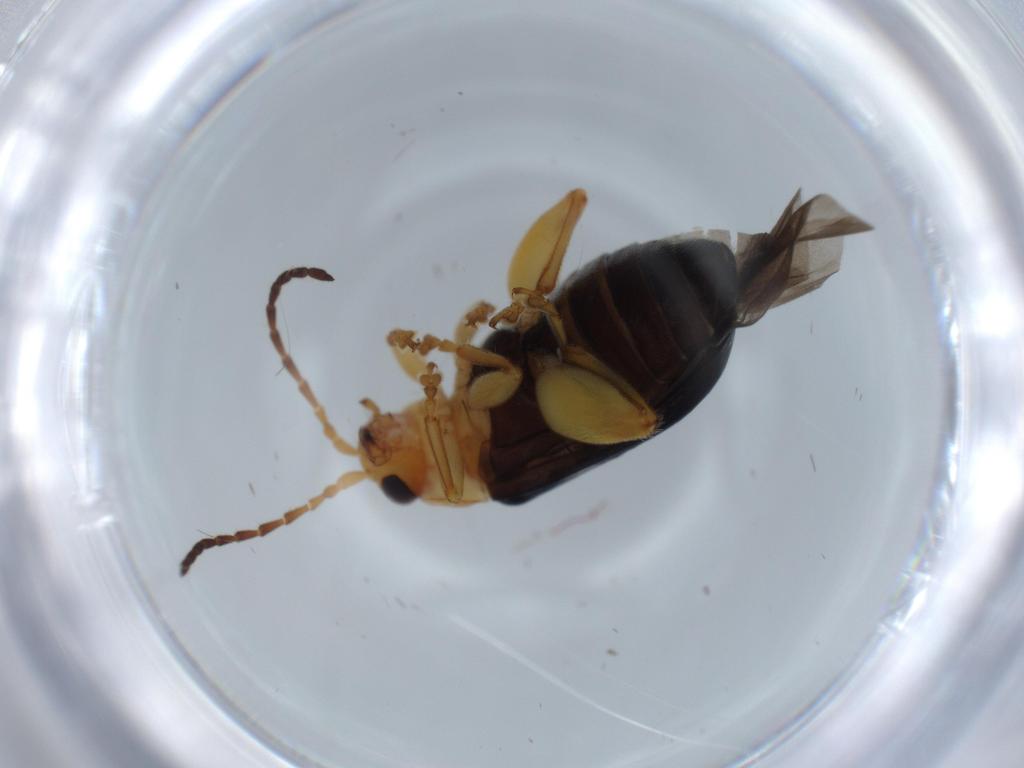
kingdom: Animalia
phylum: Arthropoda
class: Insecta
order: Coleoptera
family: Chrysomelidae
